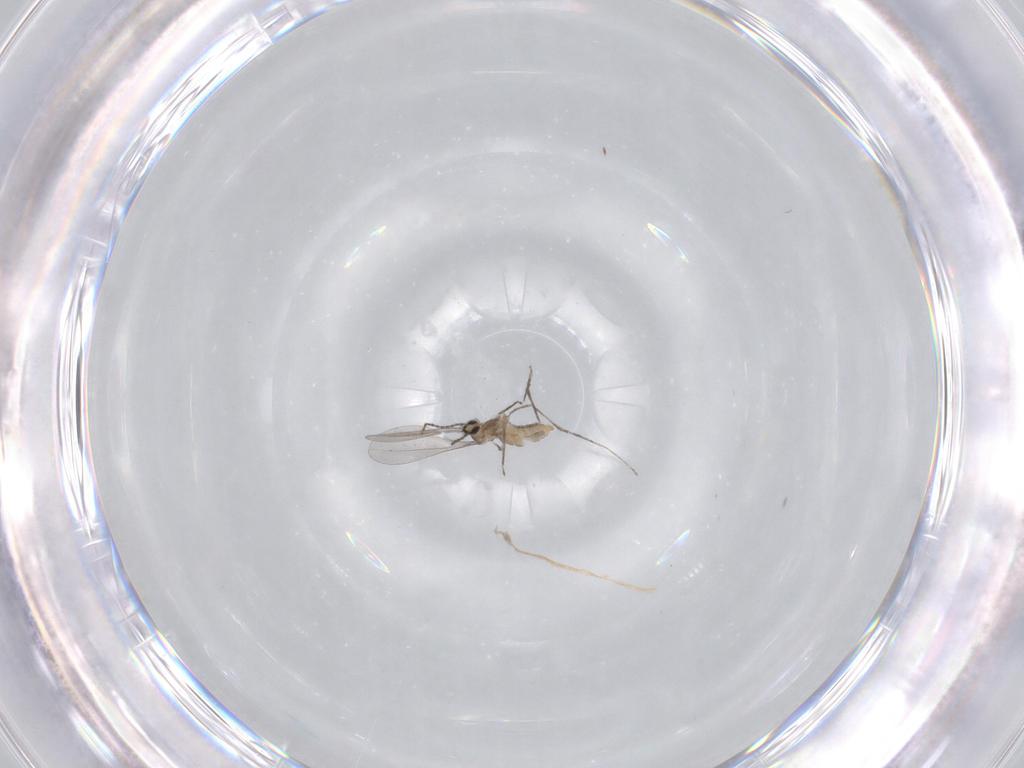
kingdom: Animalia
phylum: Arthropoda
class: Insecta
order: Diptera
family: Cecidomyiidae
